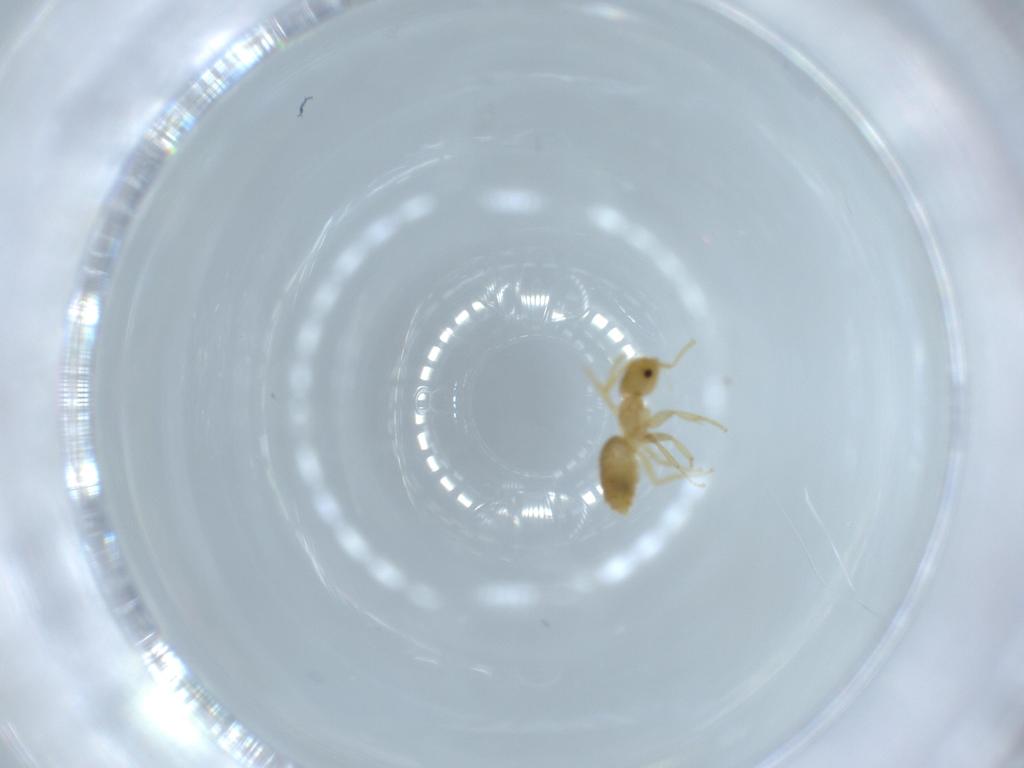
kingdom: Animalia
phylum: Arthropoda
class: Insecta
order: Hymenoptera
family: Formicidae
